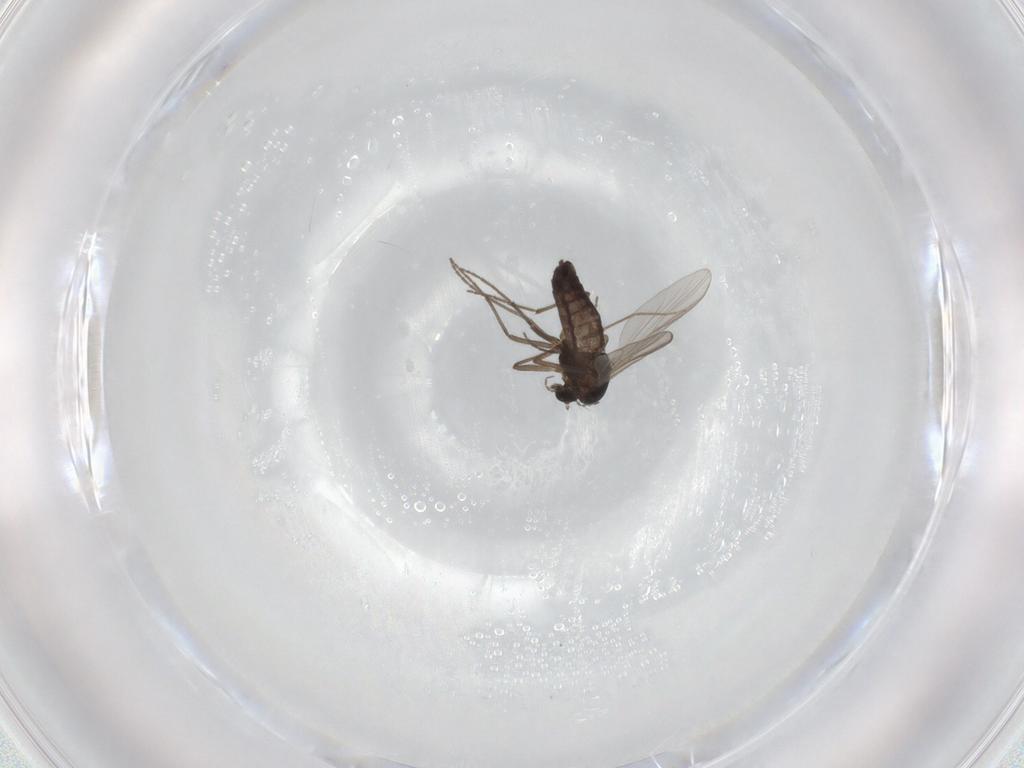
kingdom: Animalia
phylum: Arthropoda
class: Insecta
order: Diptera
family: Chironomidae
